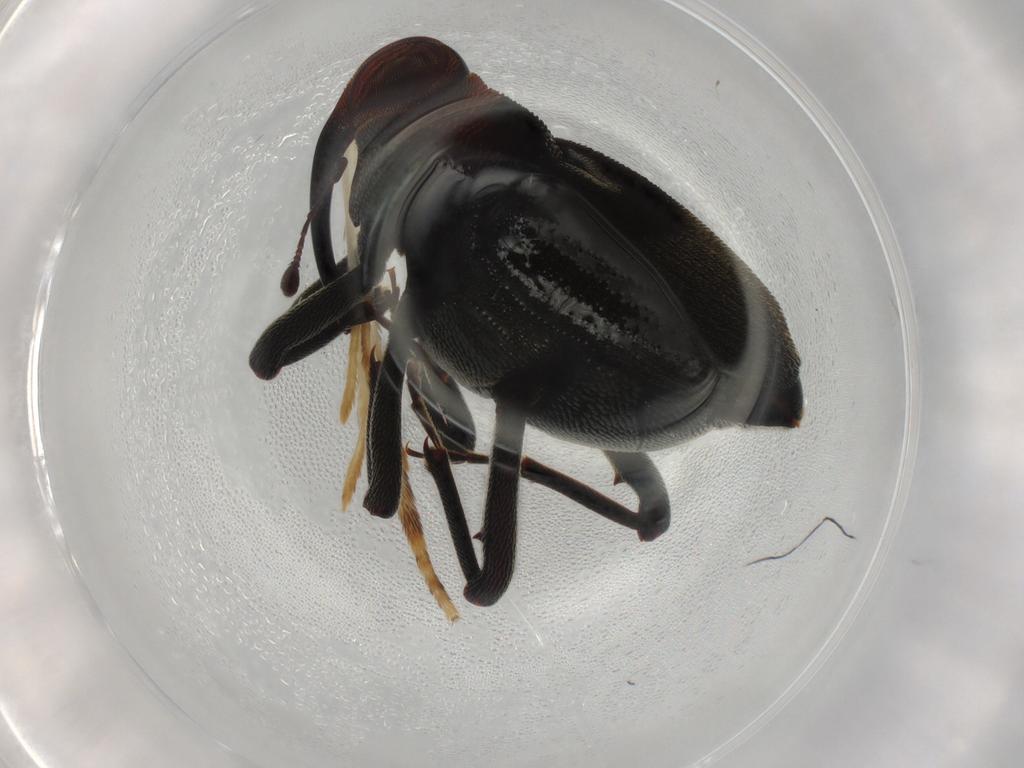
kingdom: Animalia
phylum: Arthropoda
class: Insecta
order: Coleoptera
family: Curculionidae
